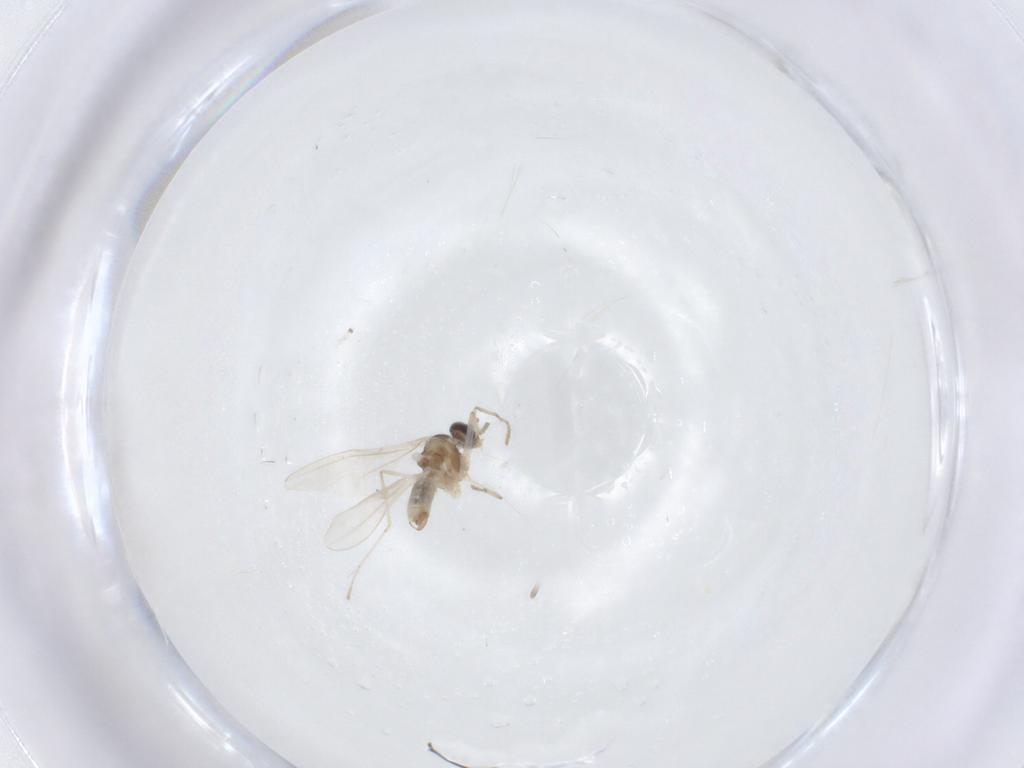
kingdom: Animalia
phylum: Arthropoda
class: Insecta
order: Diptera
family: Cecidomyiidae
